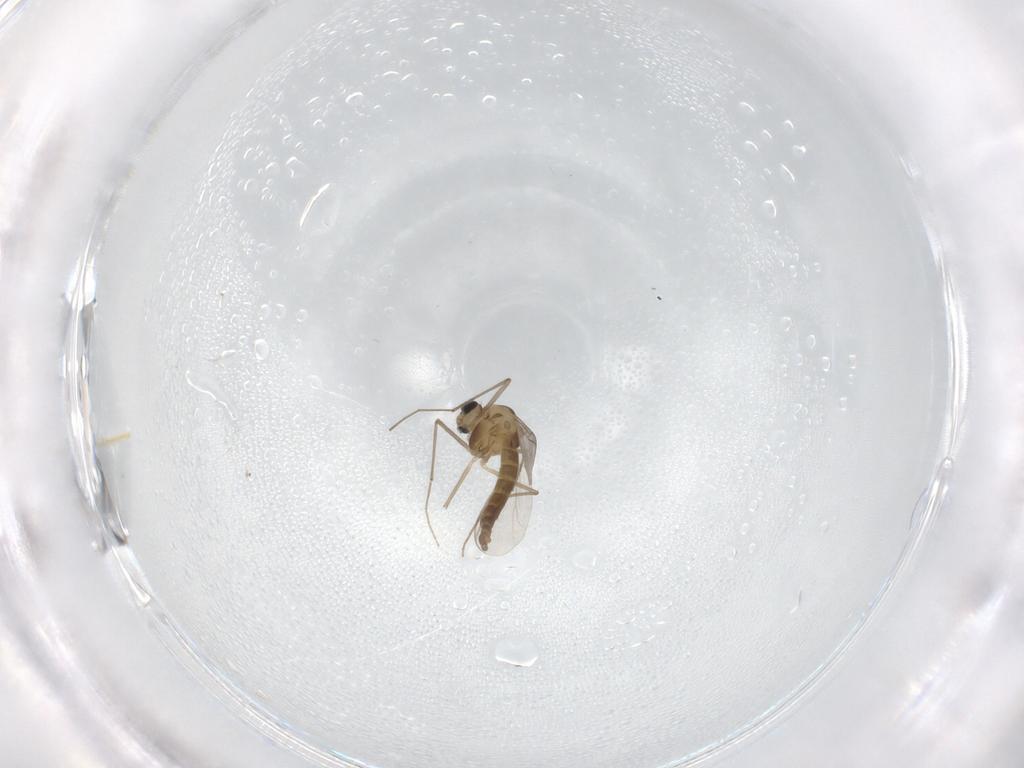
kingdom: Animalia
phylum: Arthropoda
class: Insecta
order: Diptera
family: Chironomidae
